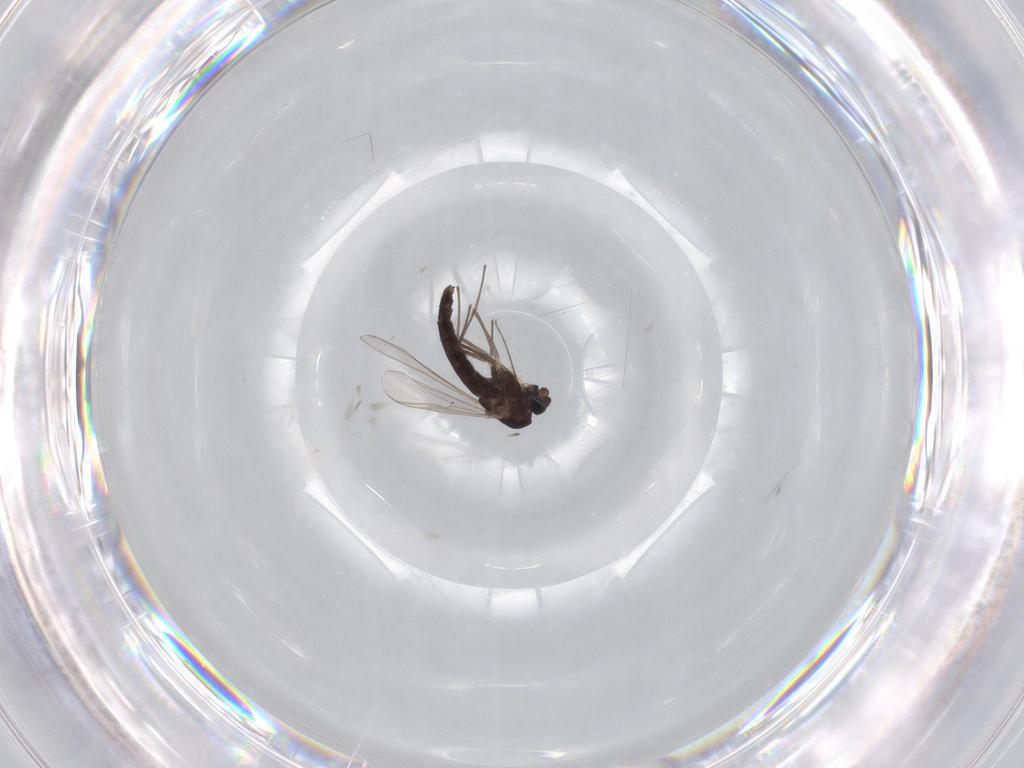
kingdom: Animalia
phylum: Arthropoda
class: Insecta
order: Diptera
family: Chironomidae
